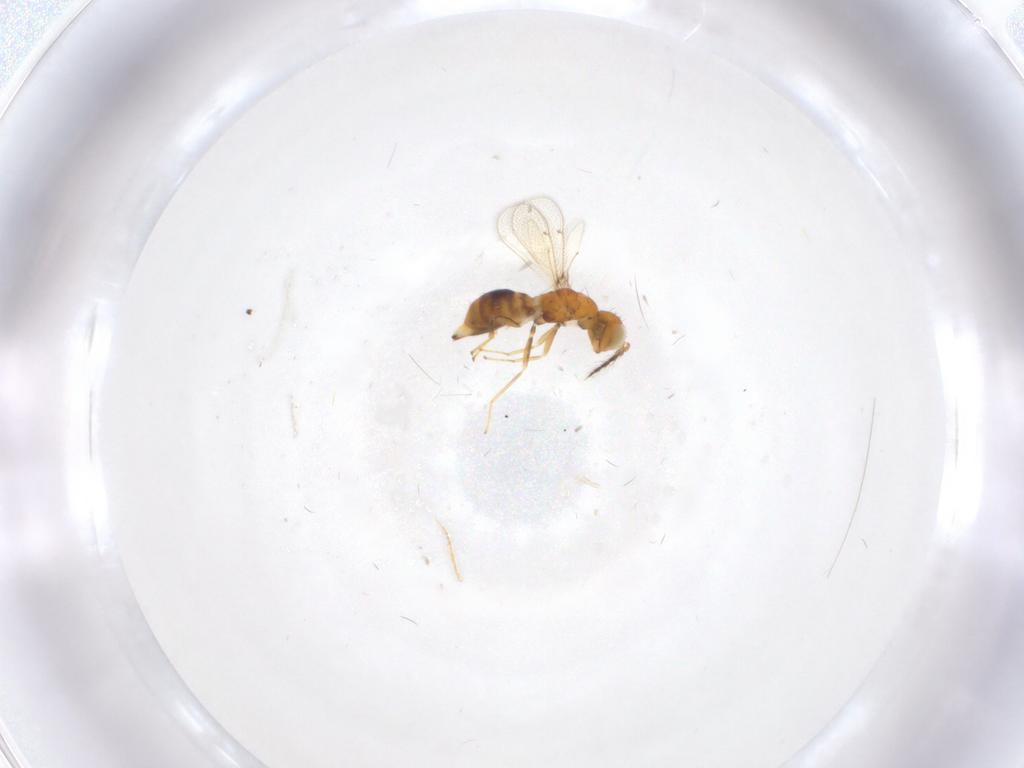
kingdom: Animalia
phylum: Arthropoda
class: Insecta
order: Hymenoptera
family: Eulophidae
